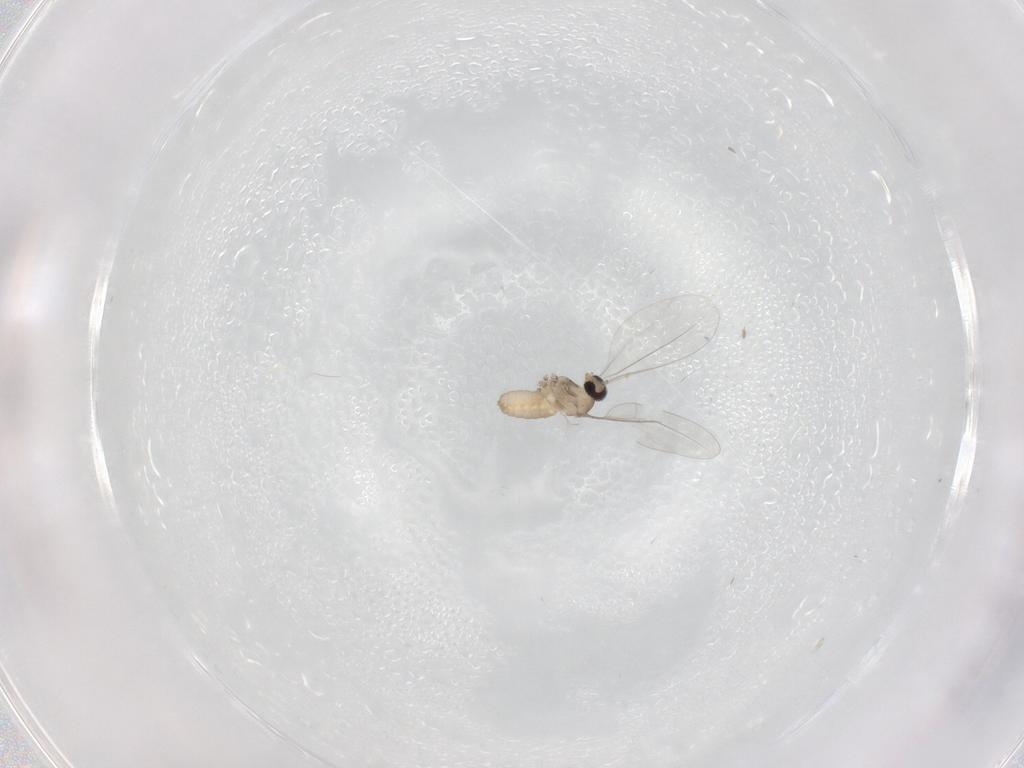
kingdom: Animalia
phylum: Arthropoda
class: Insecta
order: Diptera
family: Cecidomyiidae
